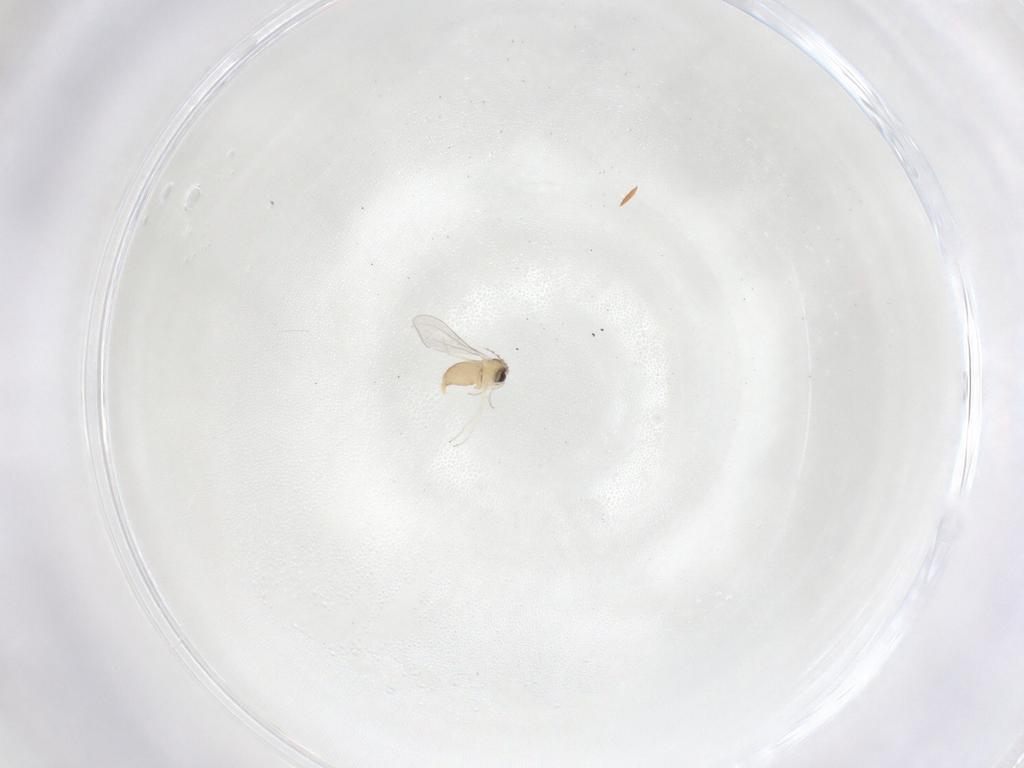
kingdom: Animalia
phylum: Arthropoda
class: Insecta
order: Diptera
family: Cecidomyiidae
